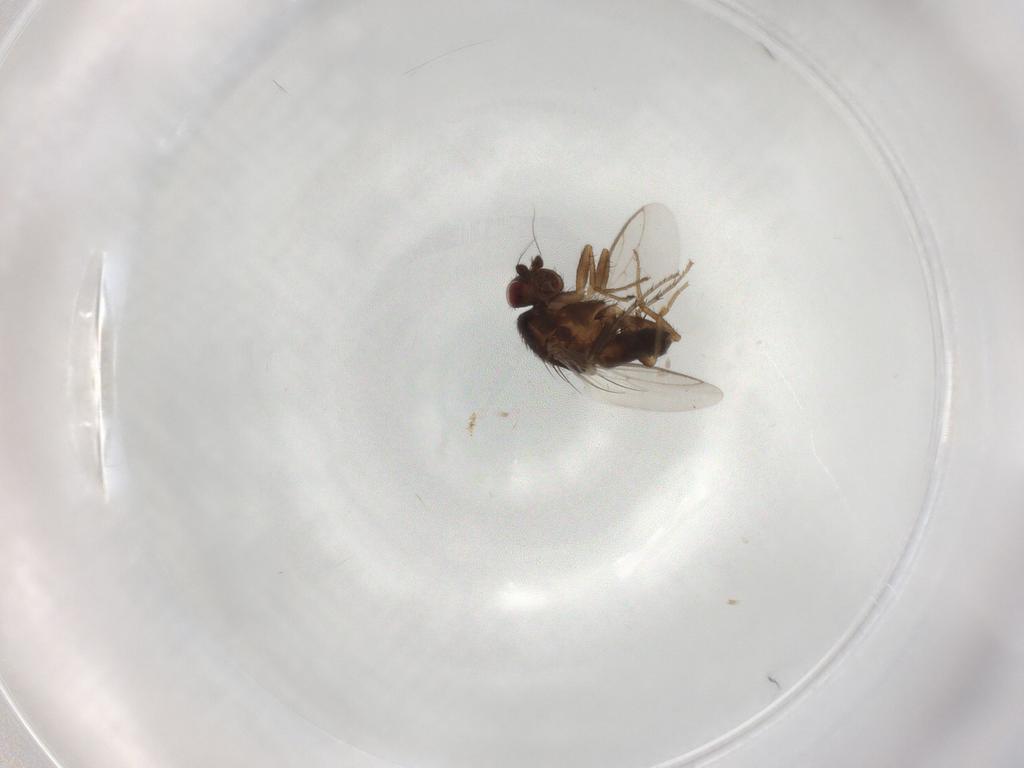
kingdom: Animalia
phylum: Arthropoda
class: Insecta
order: Diptera
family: Sphaeroceridae
